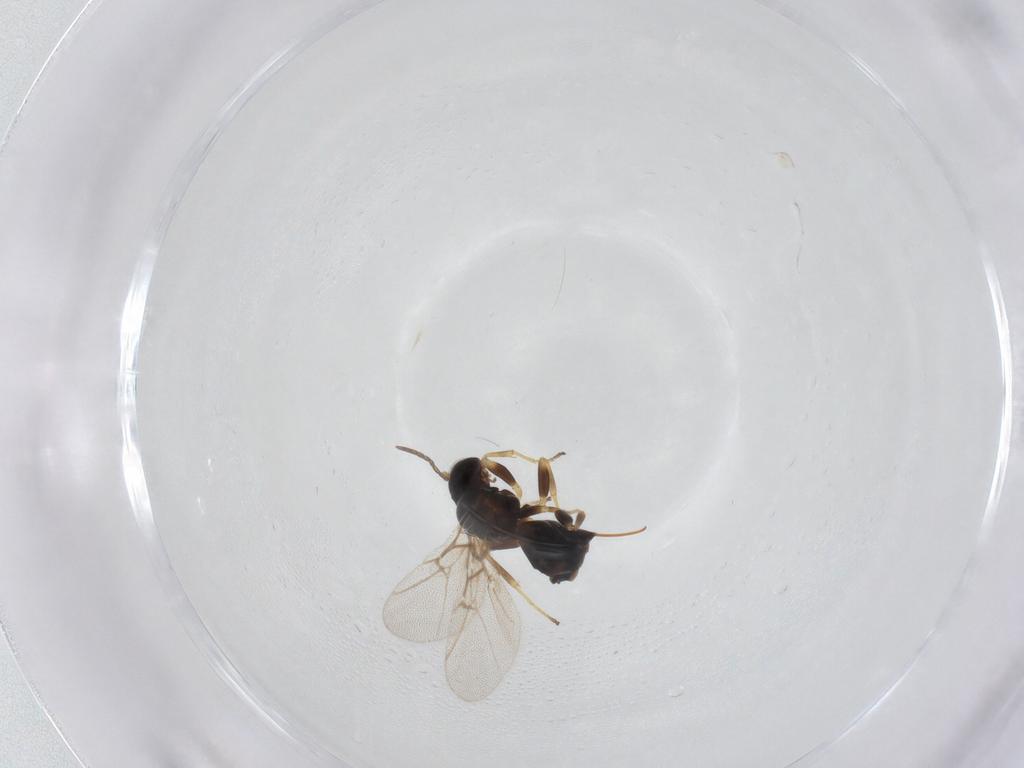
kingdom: Animalia
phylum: Arthropoda
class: Insecta
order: Hymenoptera
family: Cynipidae
